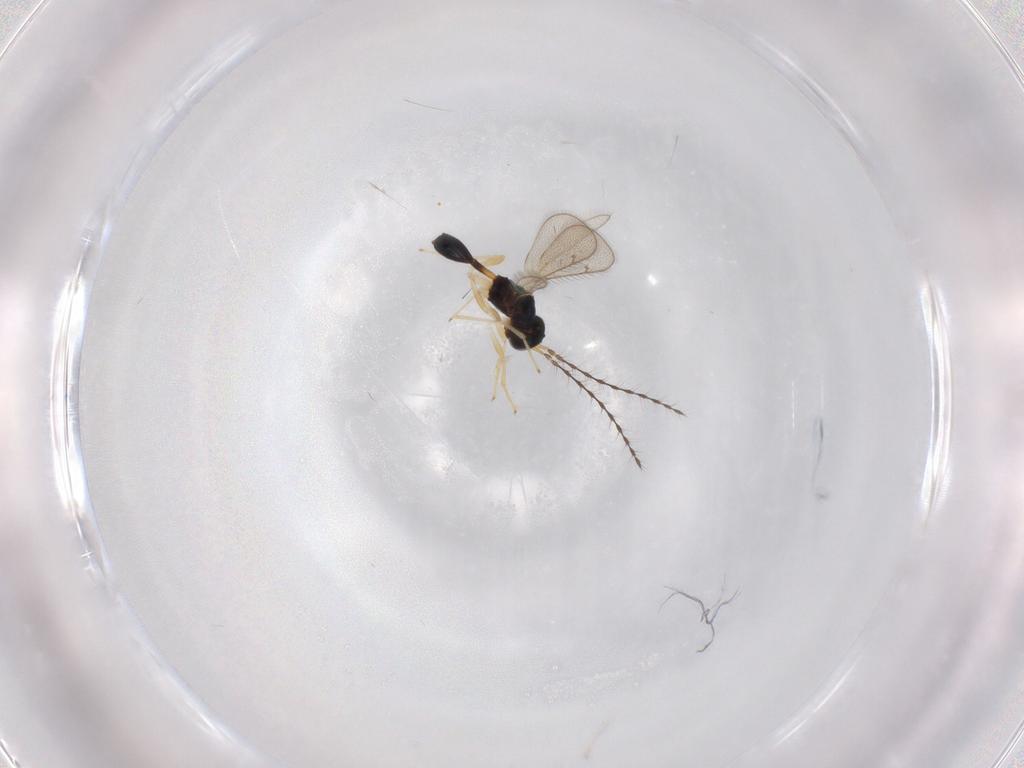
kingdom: Animalia
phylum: Arthropoda
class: Insecta
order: Hymenoptera
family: Diparidae
